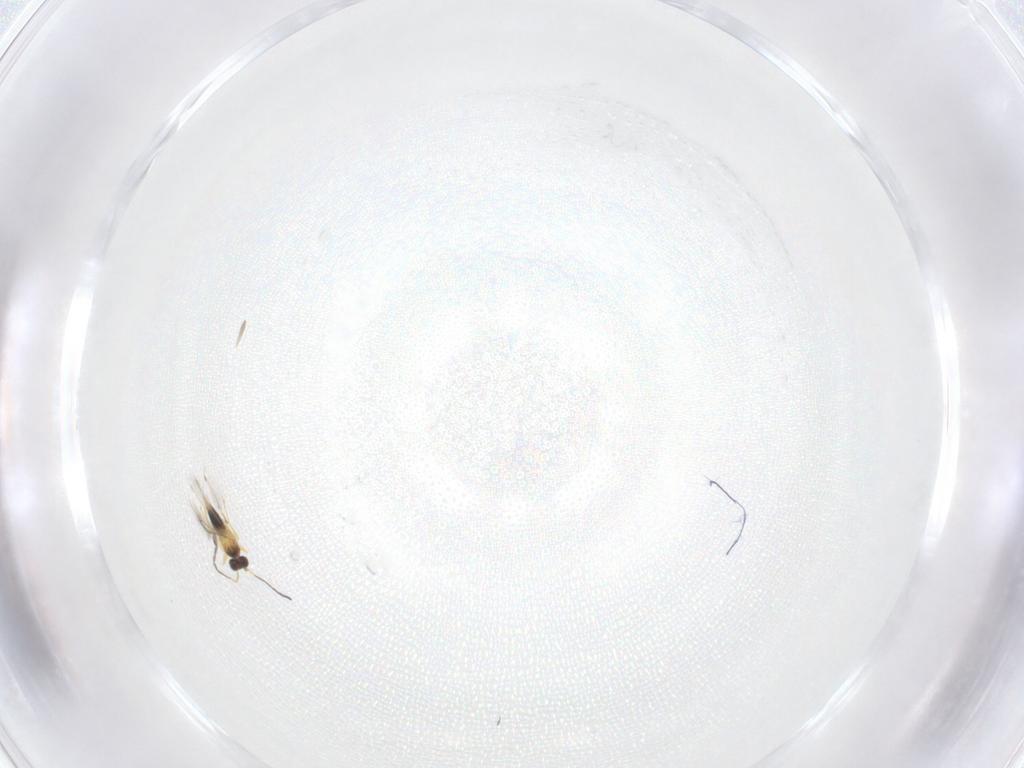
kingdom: Animalia
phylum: Arthropoda
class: Insecta
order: Hymenoptera
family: Mymaridae
